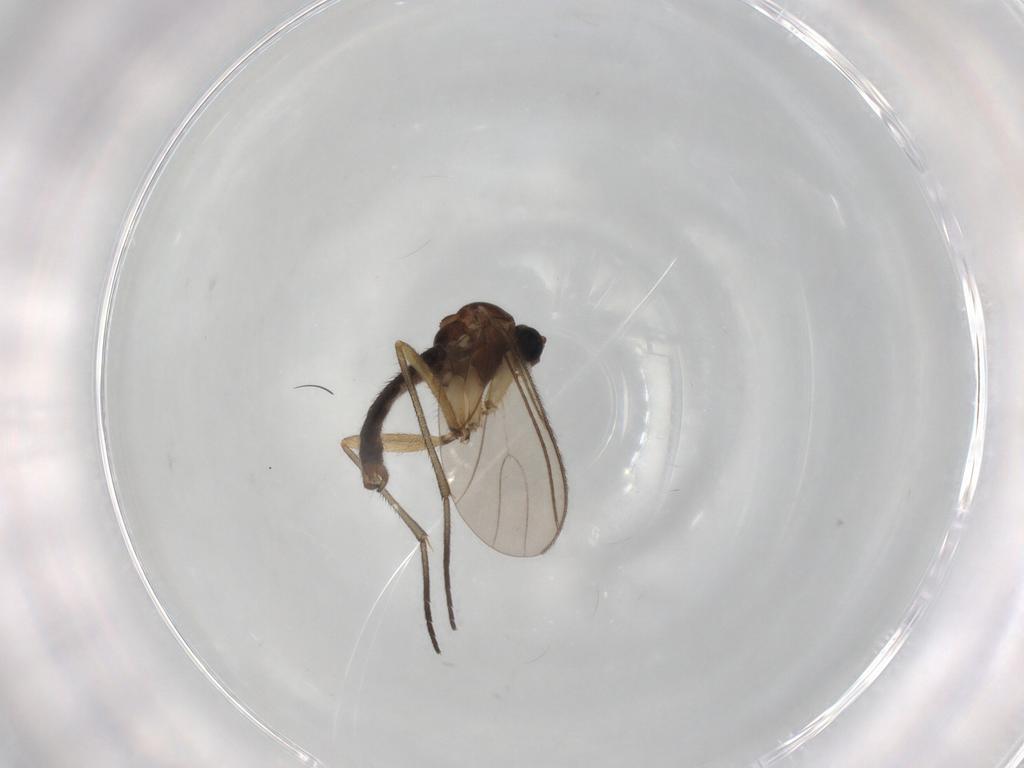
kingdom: Animalia
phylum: Arthropoda
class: Insecta
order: Diptera
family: Sciaridae
